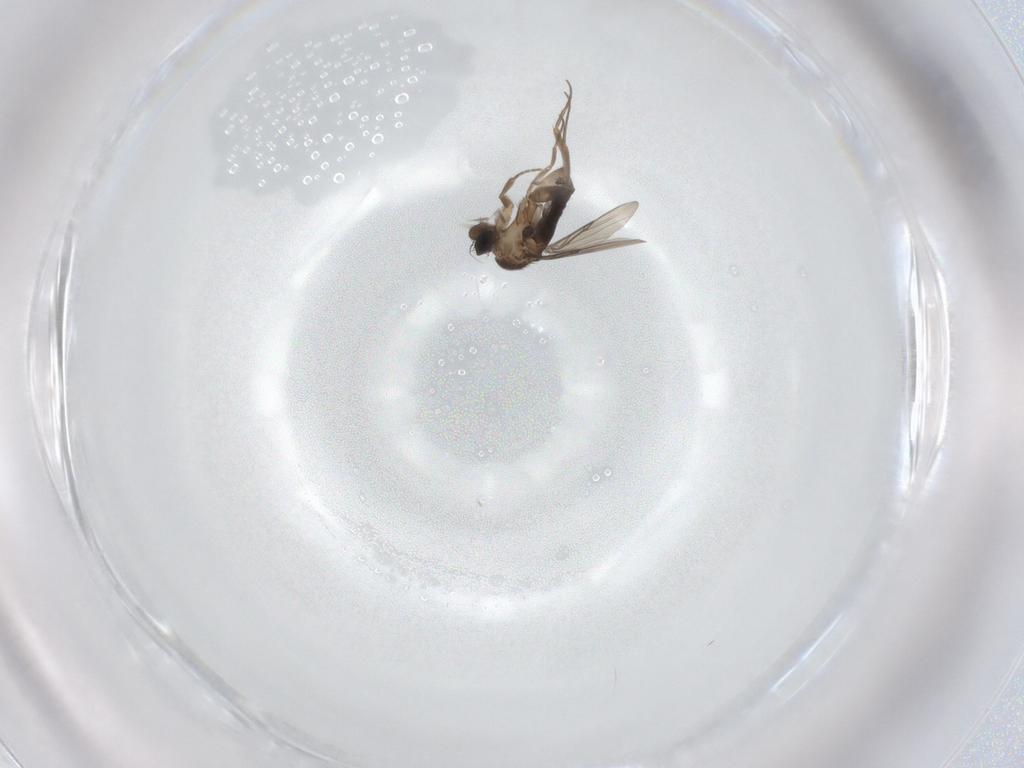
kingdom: Animalia
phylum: Arthropoda
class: Insecta
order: Diptera
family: Phoridae
